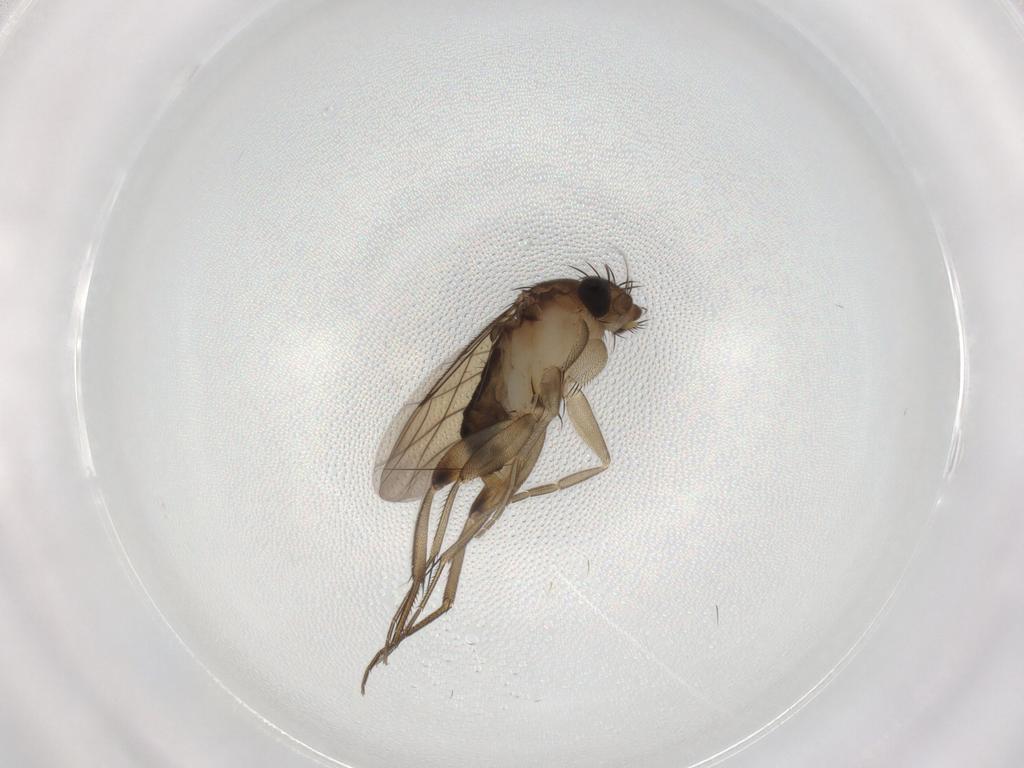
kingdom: Animalia
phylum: Arthropoda
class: Insecta
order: Diptera
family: Phoridae
